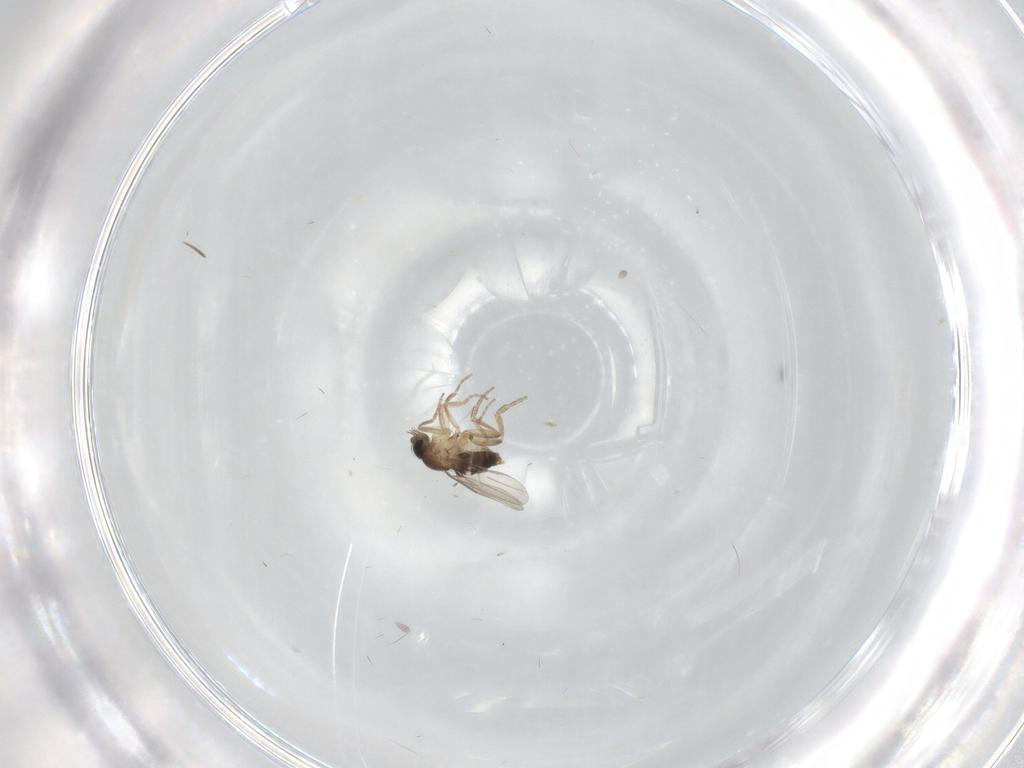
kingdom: Animalia
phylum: Arthropoda
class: Insecta
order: Diptera
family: Phoridae
